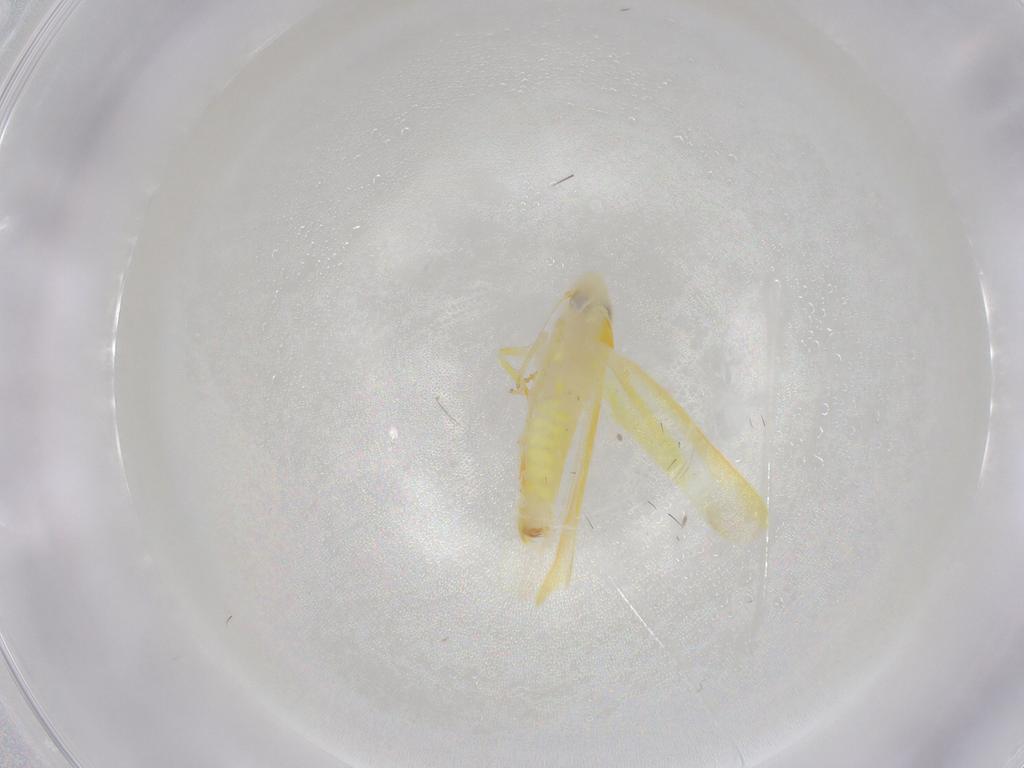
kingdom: Animalia
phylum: Arthropoda
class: Insecta
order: Hemiptera
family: Cicadellidae
